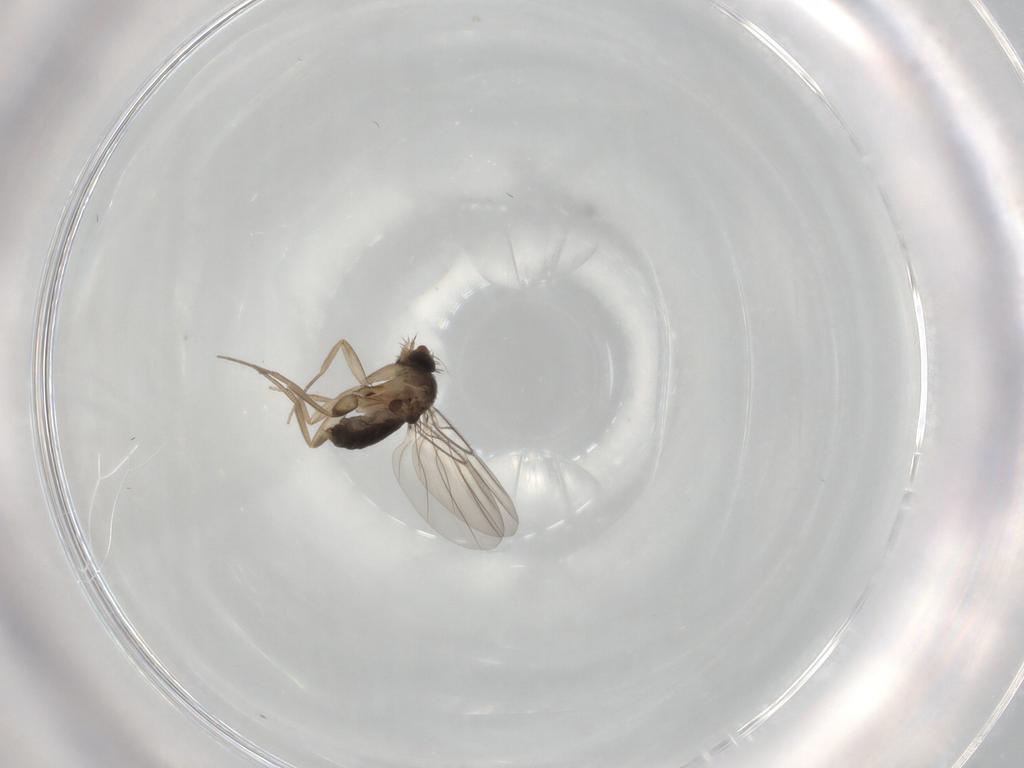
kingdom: Animalia
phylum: Arthropoda
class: Insecta
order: Diptera
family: Phoridae
